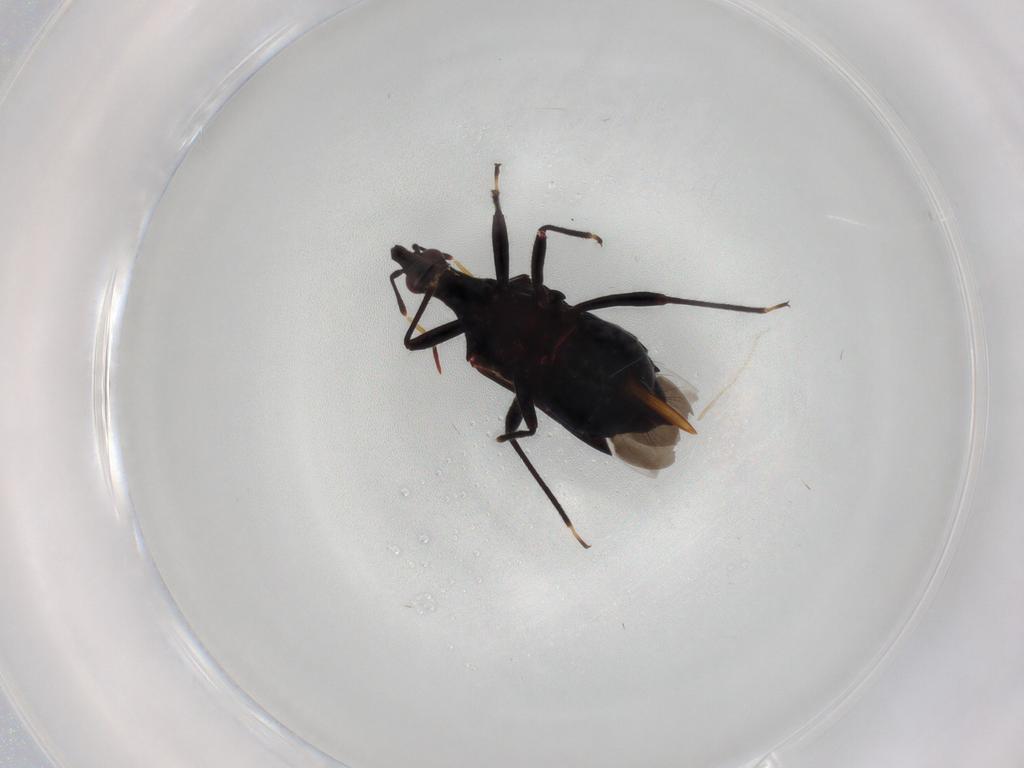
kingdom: Animalia
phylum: Arthropoda
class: Insecta
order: Hemiptera
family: Anthocoridae
